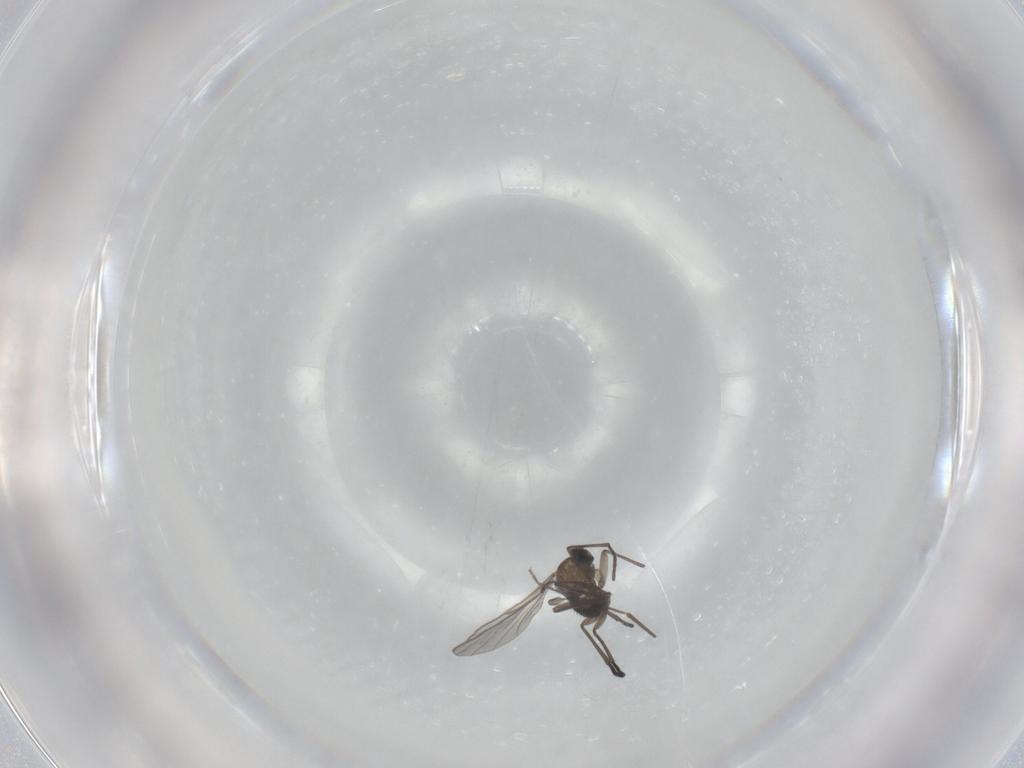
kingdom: Animalia
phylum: Arthropoda
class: Insecta
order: Diptera
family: Sciaridae
